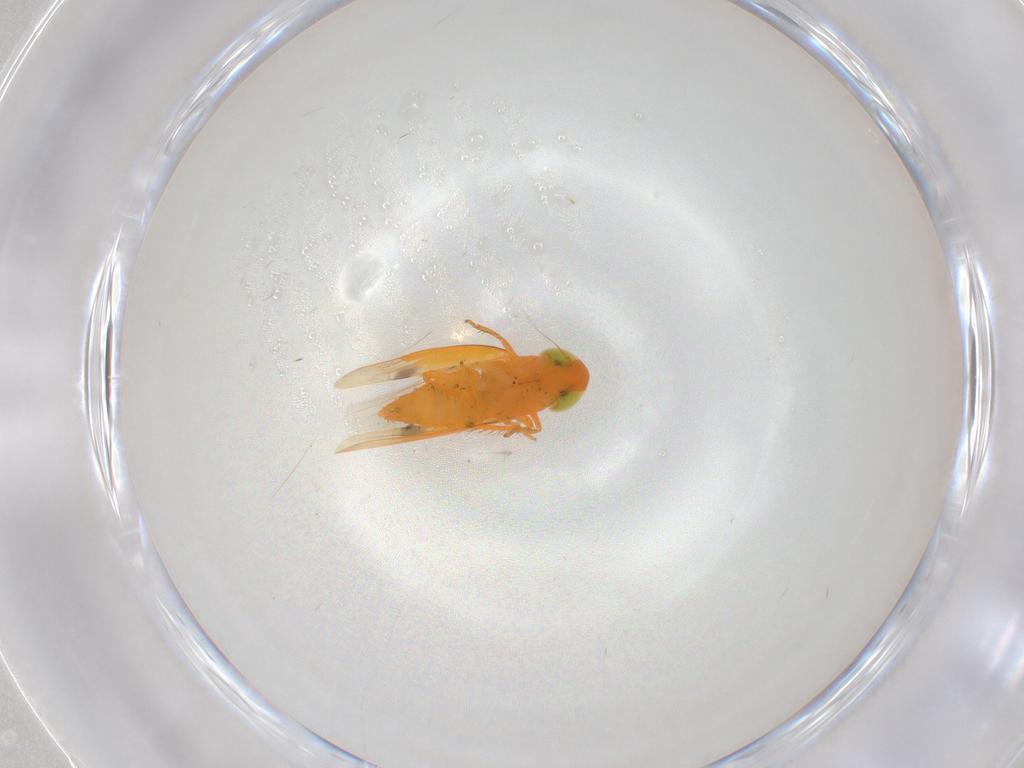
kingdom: Animalia
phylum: Arthropoda
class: Insecta
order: Hemiptera
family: Cicadellidae
